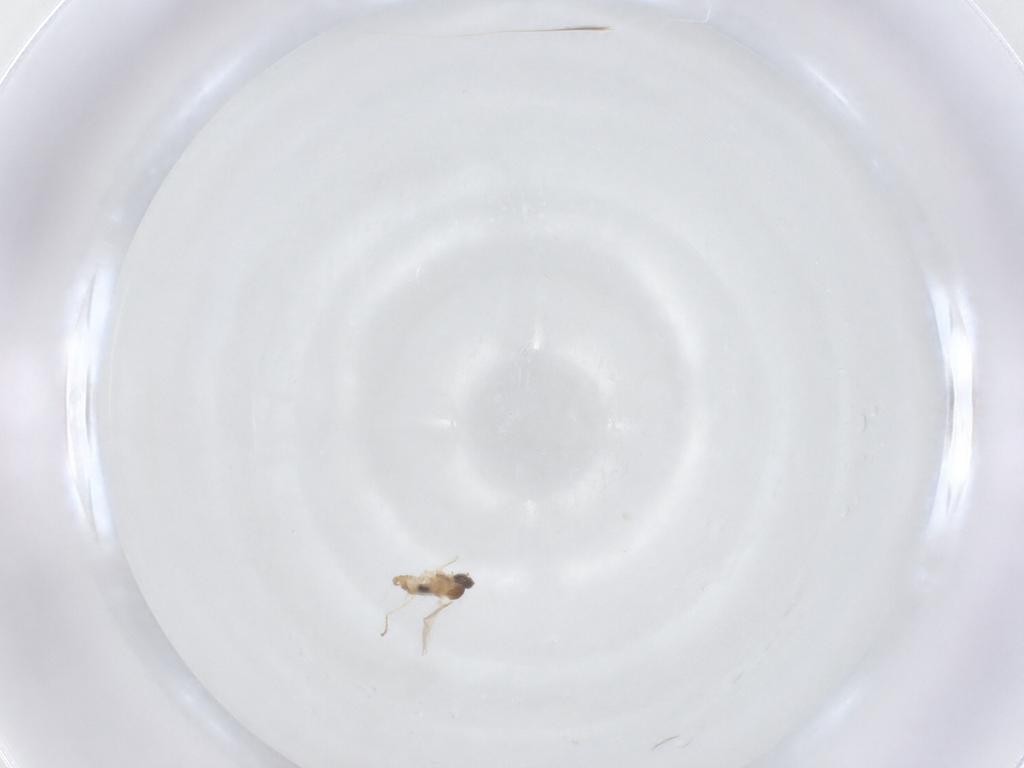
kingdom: Animalia
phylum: Arthropoda
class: Insecta
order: Diptera
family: Cecidomyiidae
